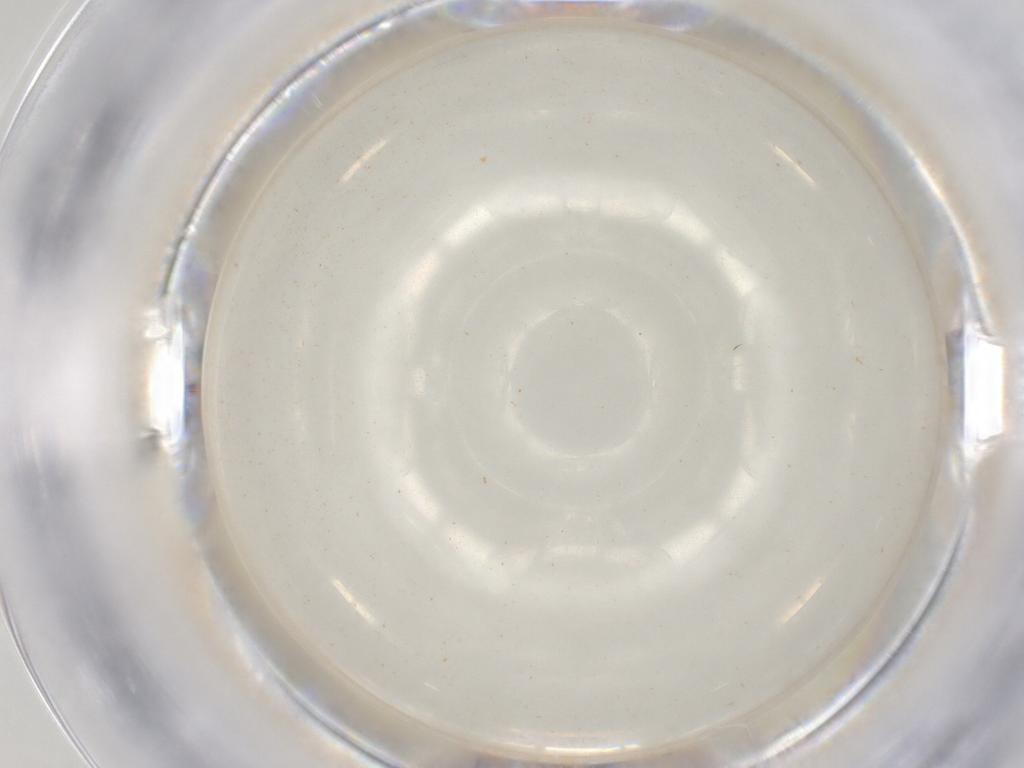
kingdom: Animalia
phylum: Arthropoda
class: Insecta
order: Orthoptera
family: Mogoplistidae
